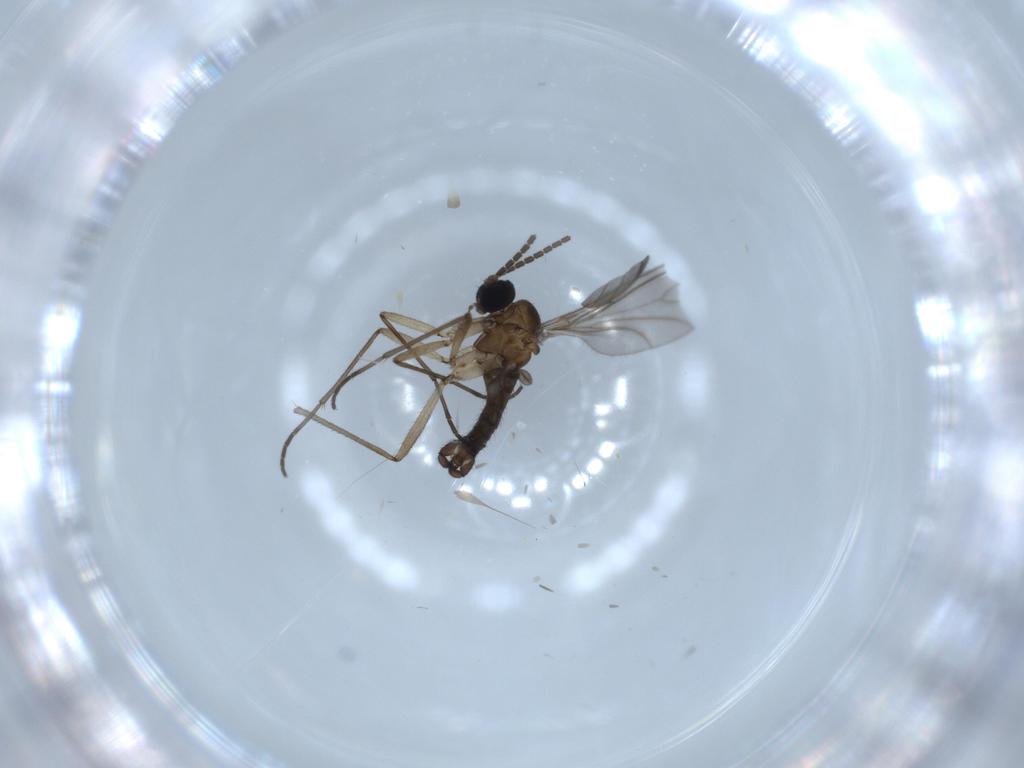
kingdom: Animalia
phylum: Arthropoda
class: Insecta
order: Diptera
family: Sciaridae
